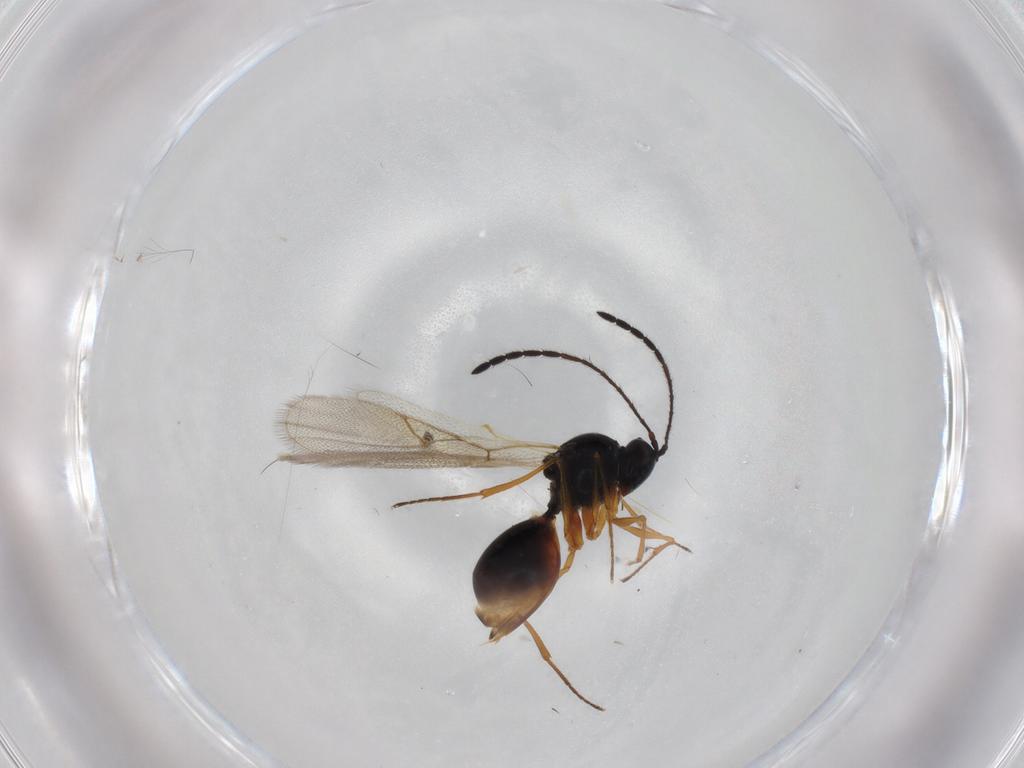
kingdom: Animalia
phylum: Arthropoda
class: Insecta
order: Hymenoptera
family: Figitidae
